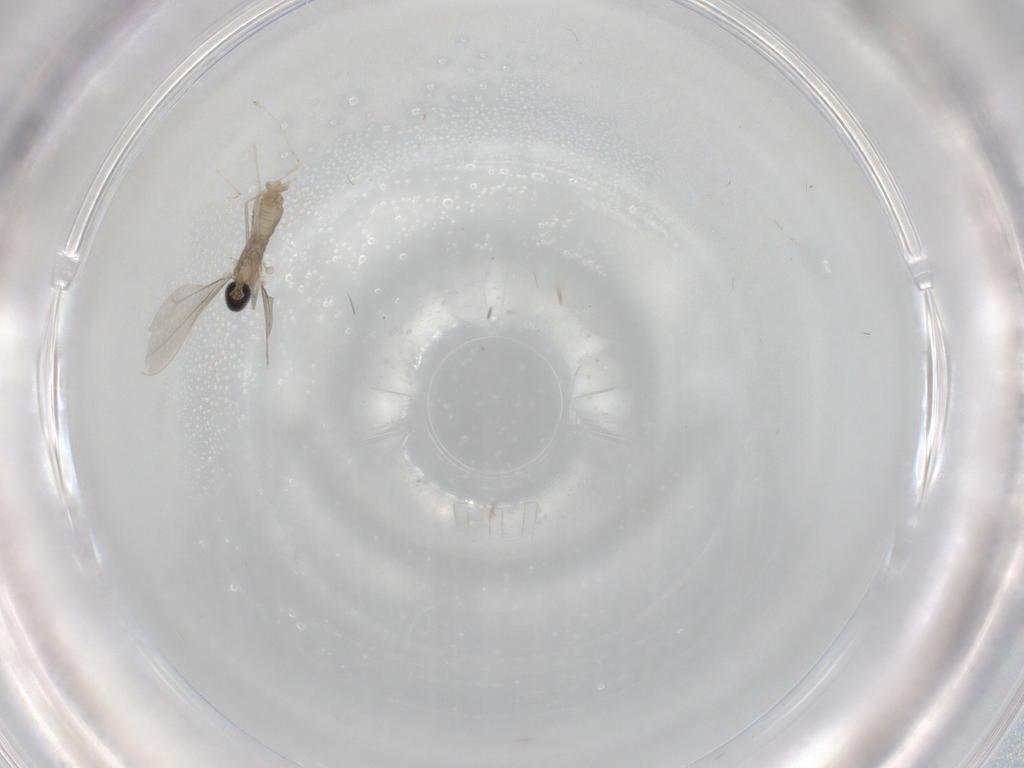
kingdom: Animalia
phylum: Arthropoda
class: Insecta
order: Diptera
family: Cecidomyiidae
